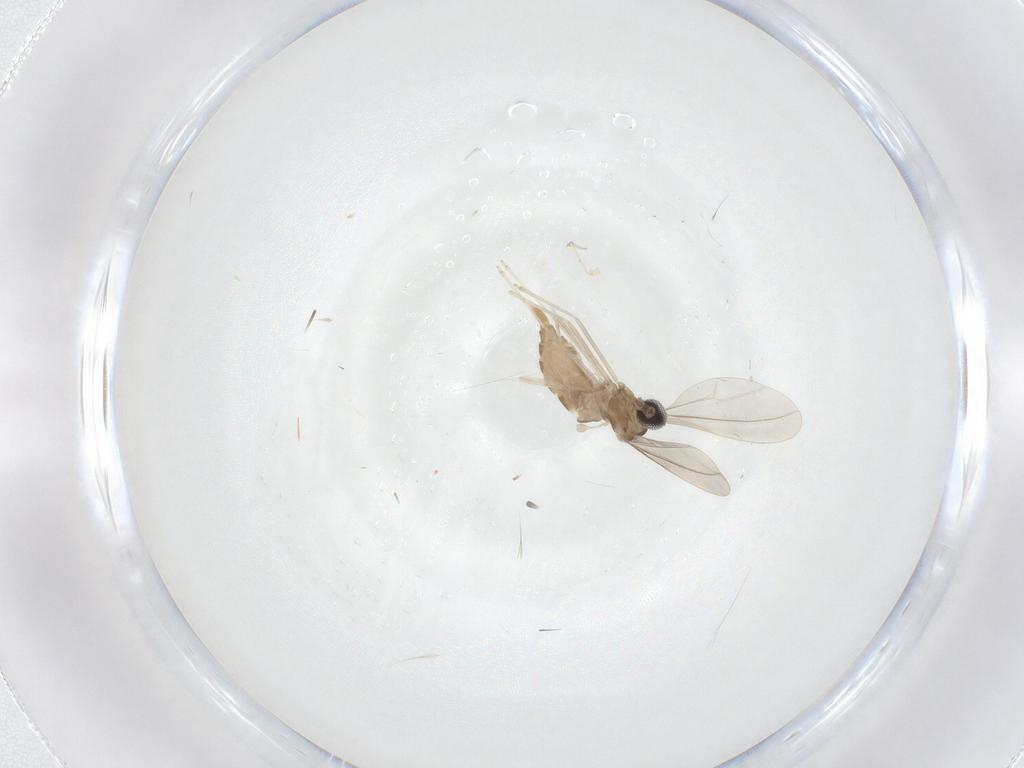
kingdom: Animalia
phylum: Arthropoda
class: Insecta
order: Diptera
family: Cecidomyiidae
